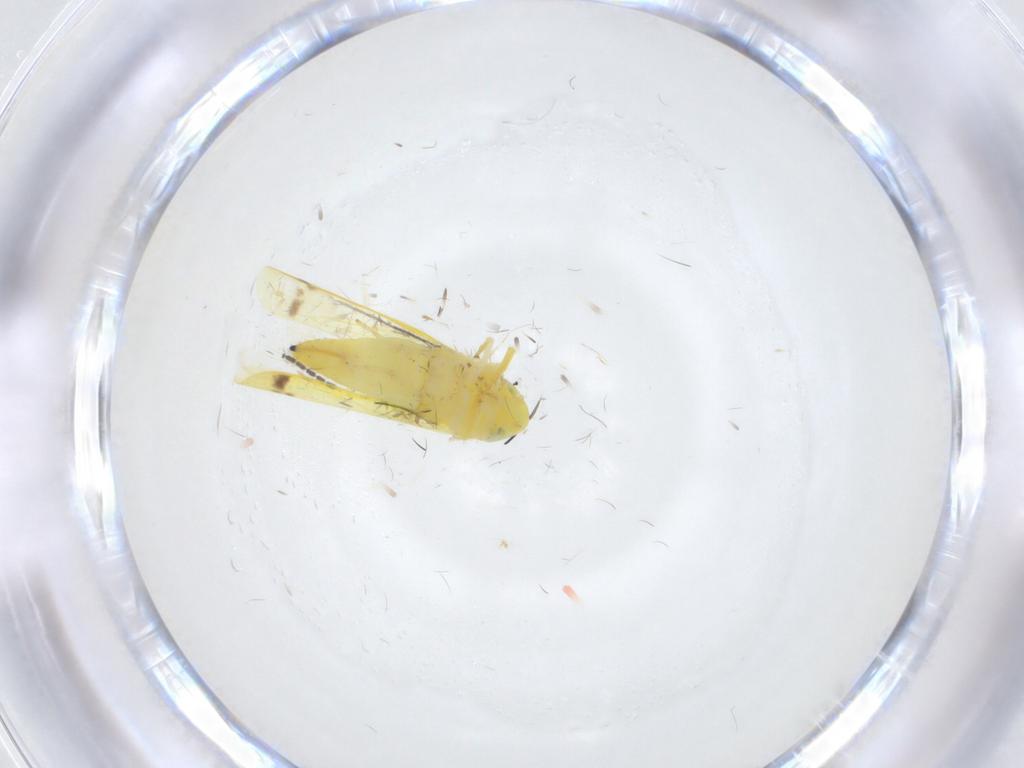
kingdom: Animalia
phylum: Arthropoda
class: Insecta
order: Hemiptera
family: Cicadellidae
